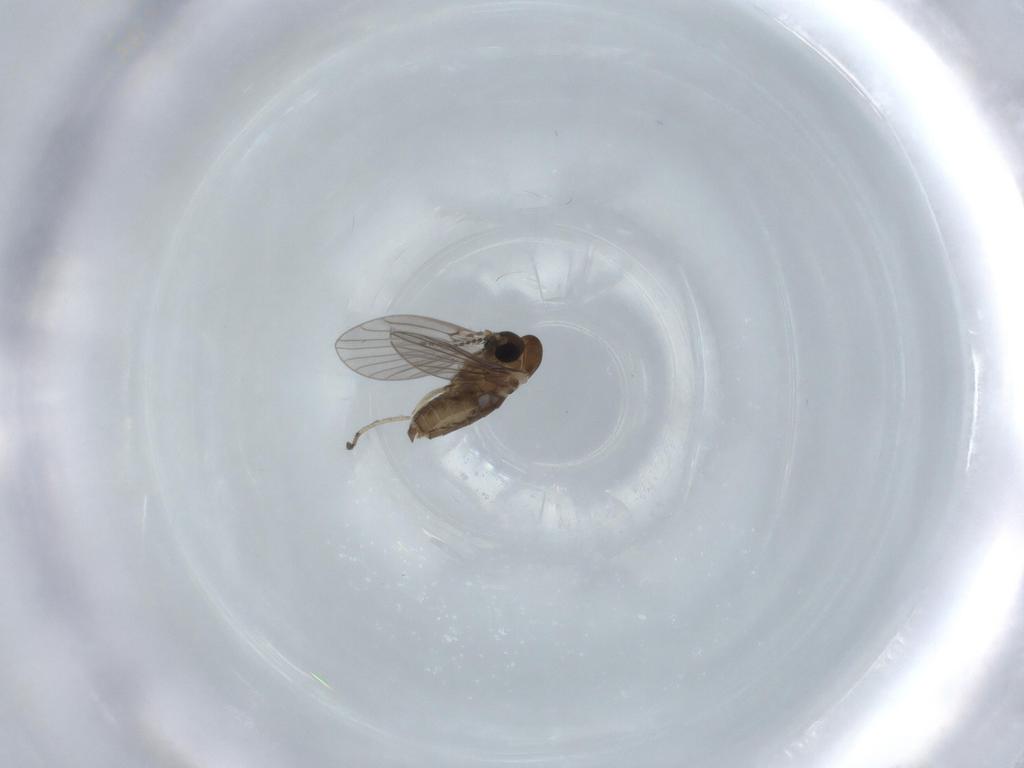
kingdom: Animalia
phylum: Arthropoda
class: Insecta
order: Diptera
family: Psychodidae
